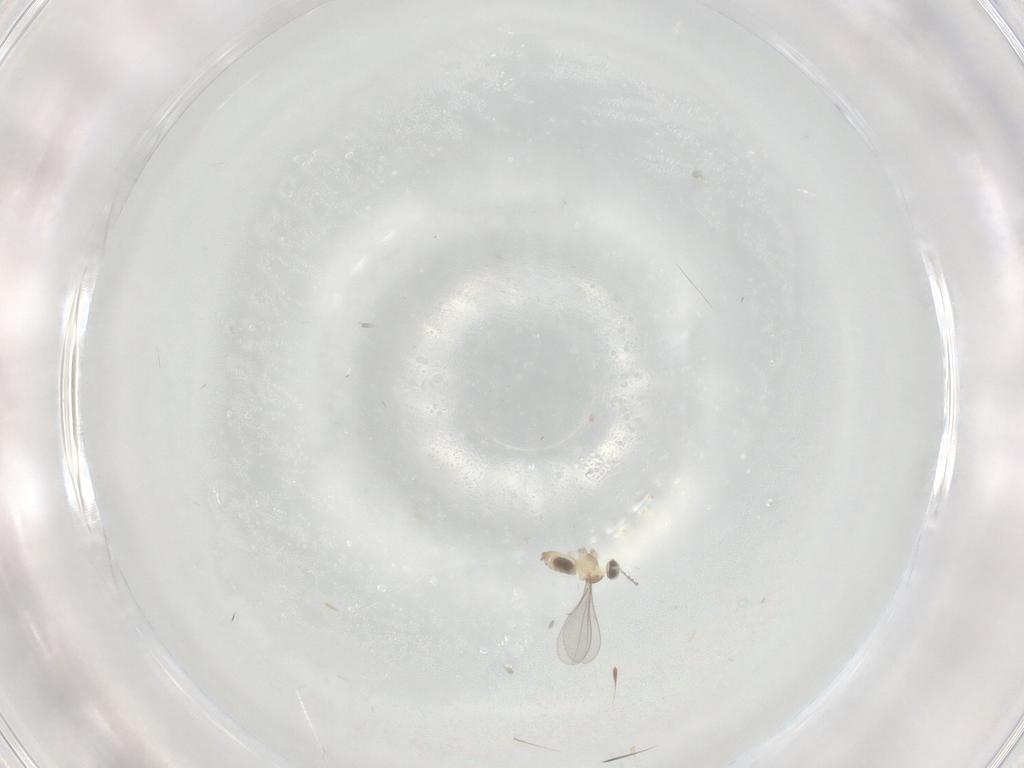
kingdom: Animalia
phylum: Arthropoda
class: Insecta
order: Diptera
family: Cecidomyiidae
